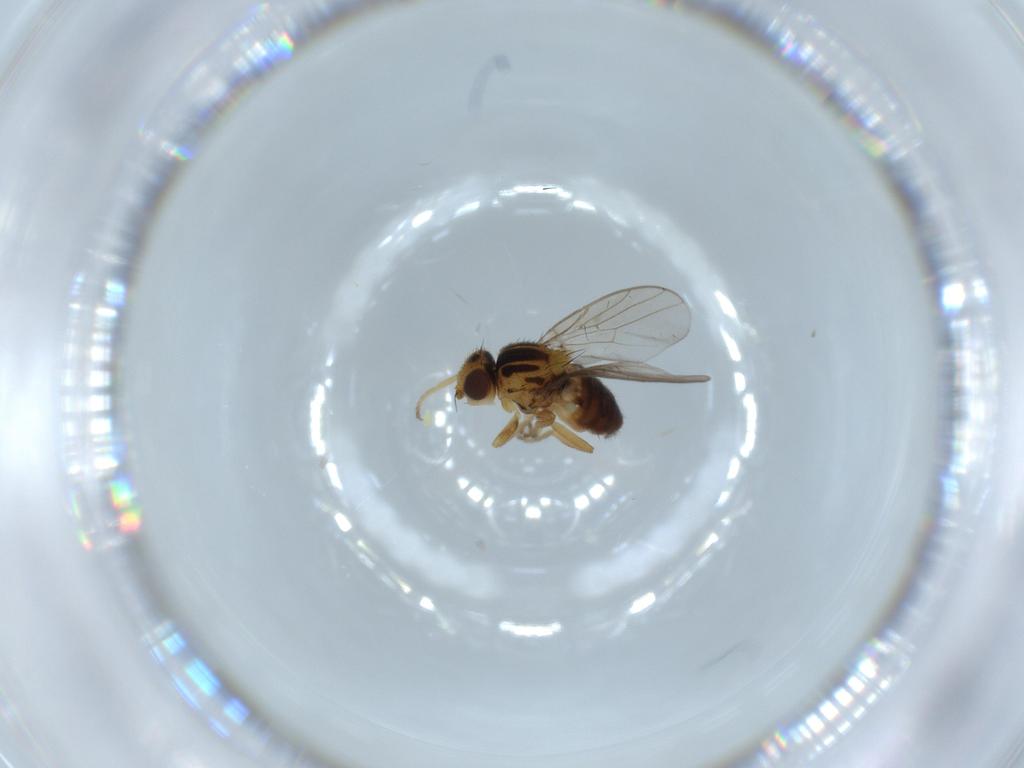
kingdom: Animalia
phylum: Arthropoda
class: Insecta
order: Diptera
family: Chloropidae
